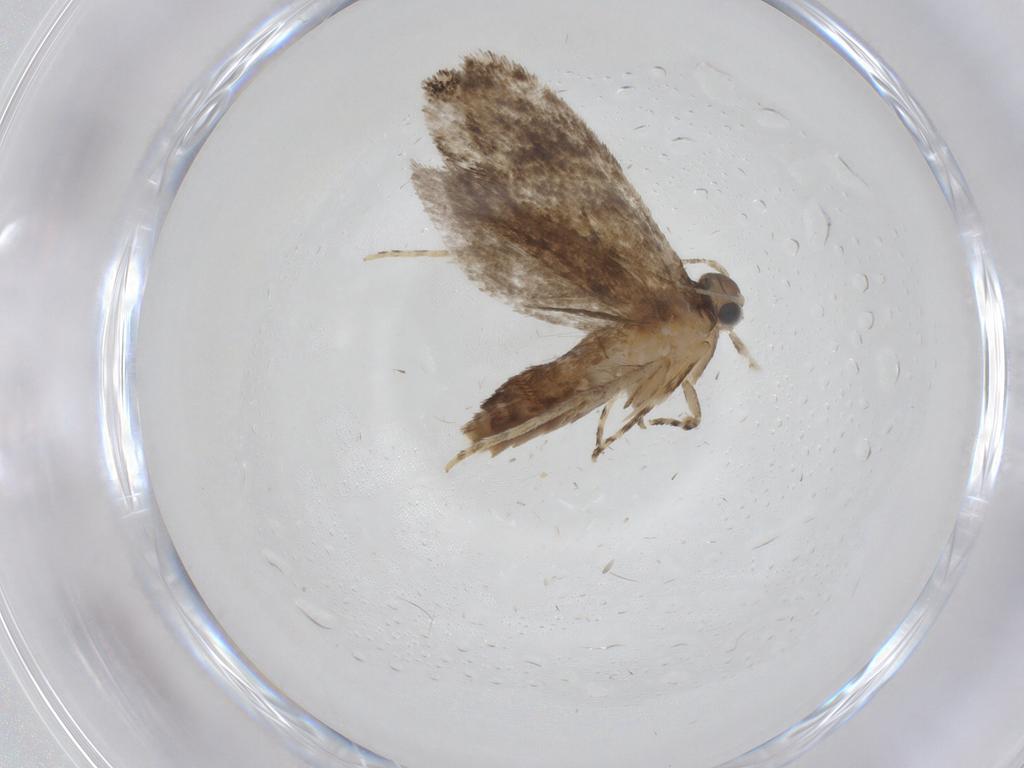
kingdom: Animalia
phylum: Arthropoda
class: Insecta
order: Lepidoptera
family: Tineidae
